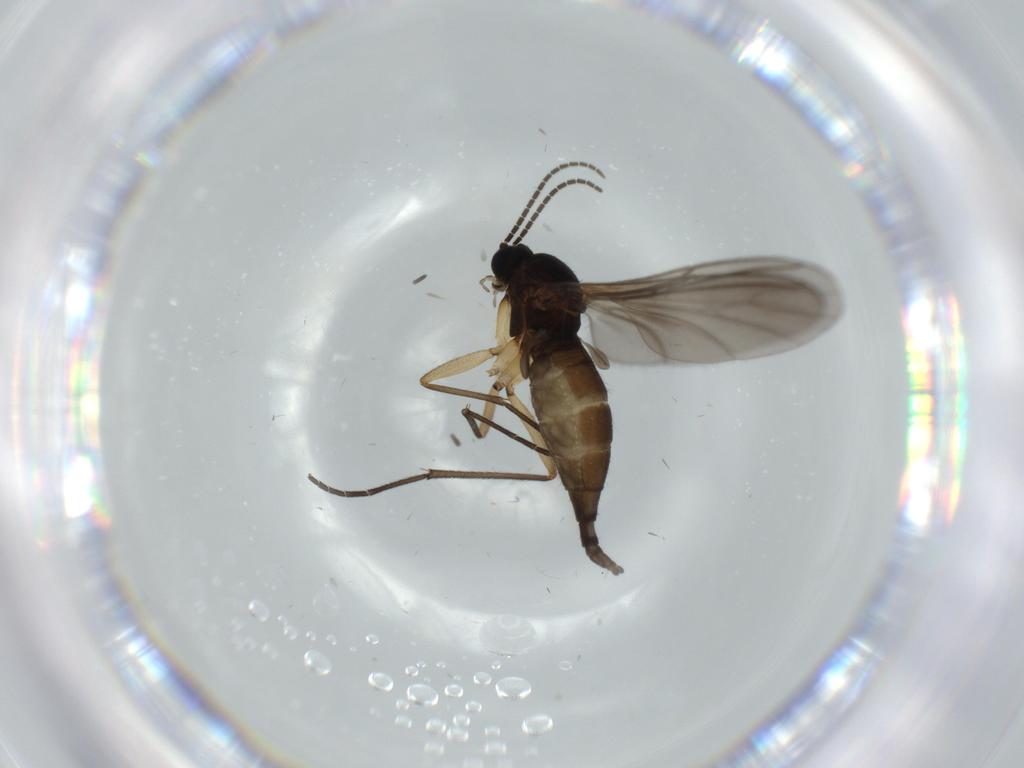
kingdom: Animalia
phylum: Arthropoda
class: Insecta
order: Diptera
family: Sciaridae
